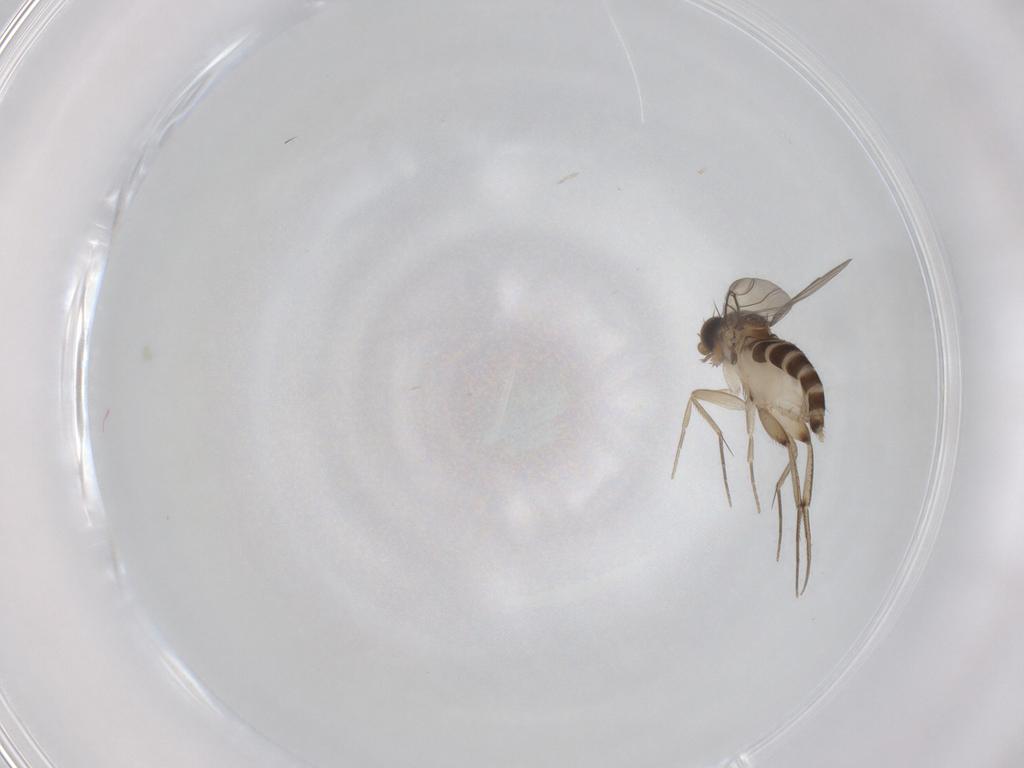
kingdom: Animalia
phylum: Arthropoda
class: Insecta
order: Diptera
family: Phoridae
